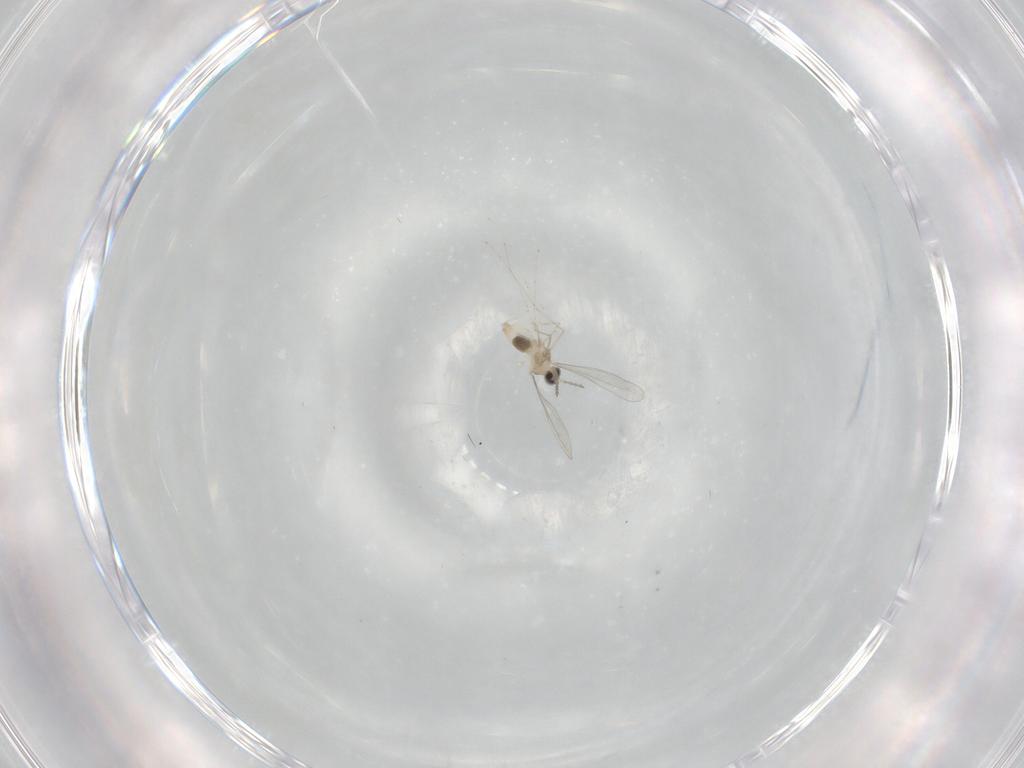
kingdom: Animalia
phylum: Arthropoda
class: Insecta
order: Diptera
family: Cecidomyiidae
